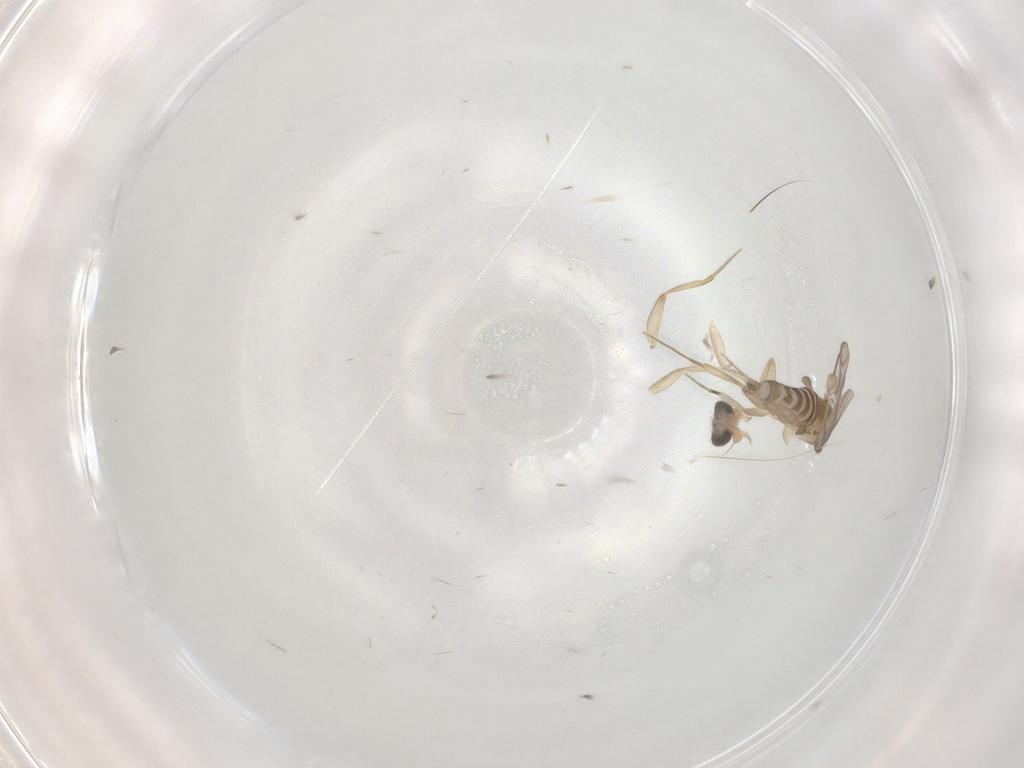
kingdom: Animalia
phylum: Arthropoda
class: Insecta
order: Diptera
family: Phoridae
